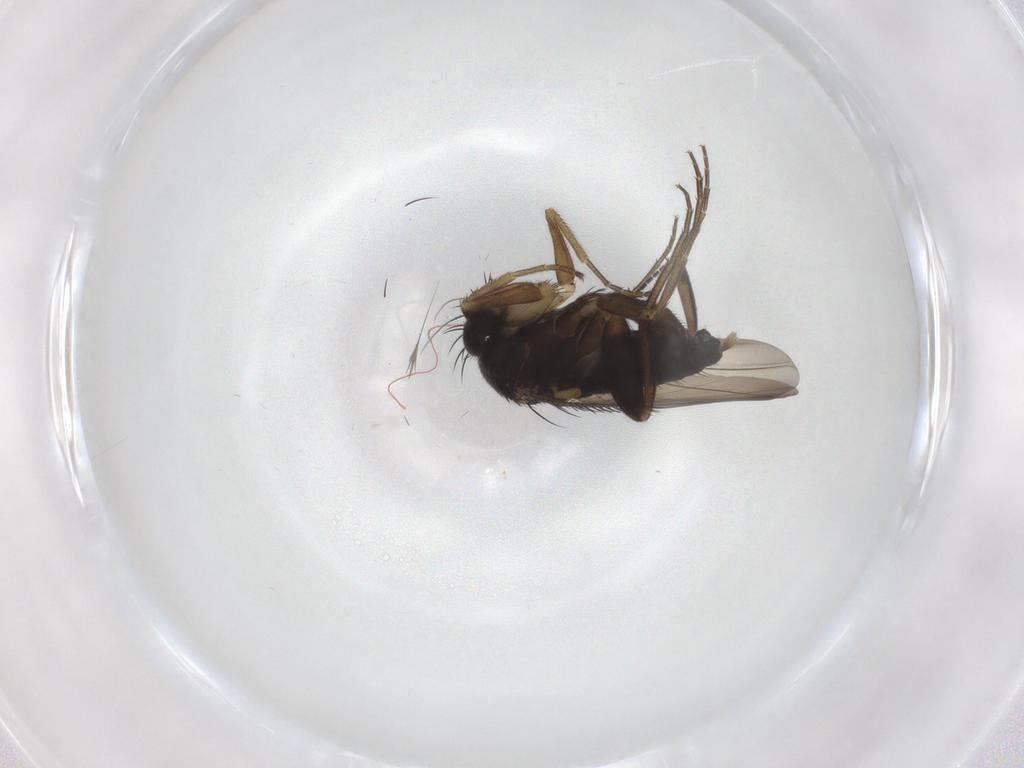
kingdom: Animalia
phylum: Arthropoda
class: Insecta
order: Diptera
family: Phoridae
